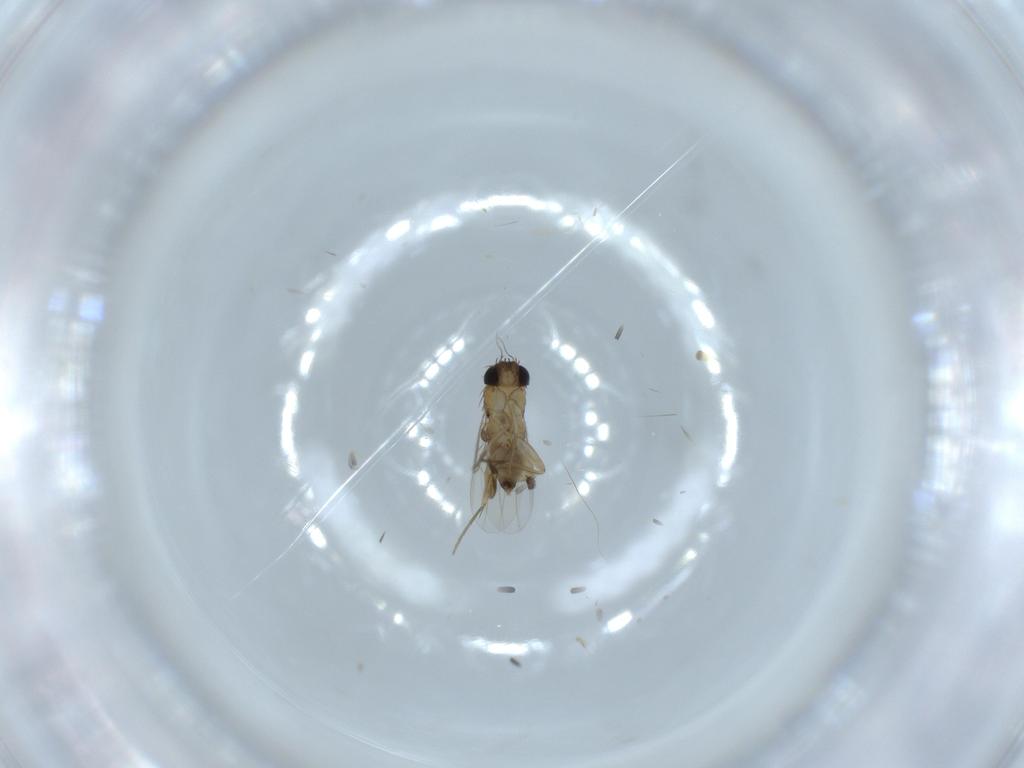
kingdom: Animalia
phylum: Arthropoda
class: Insecta
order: Diptera
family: Phoridae
